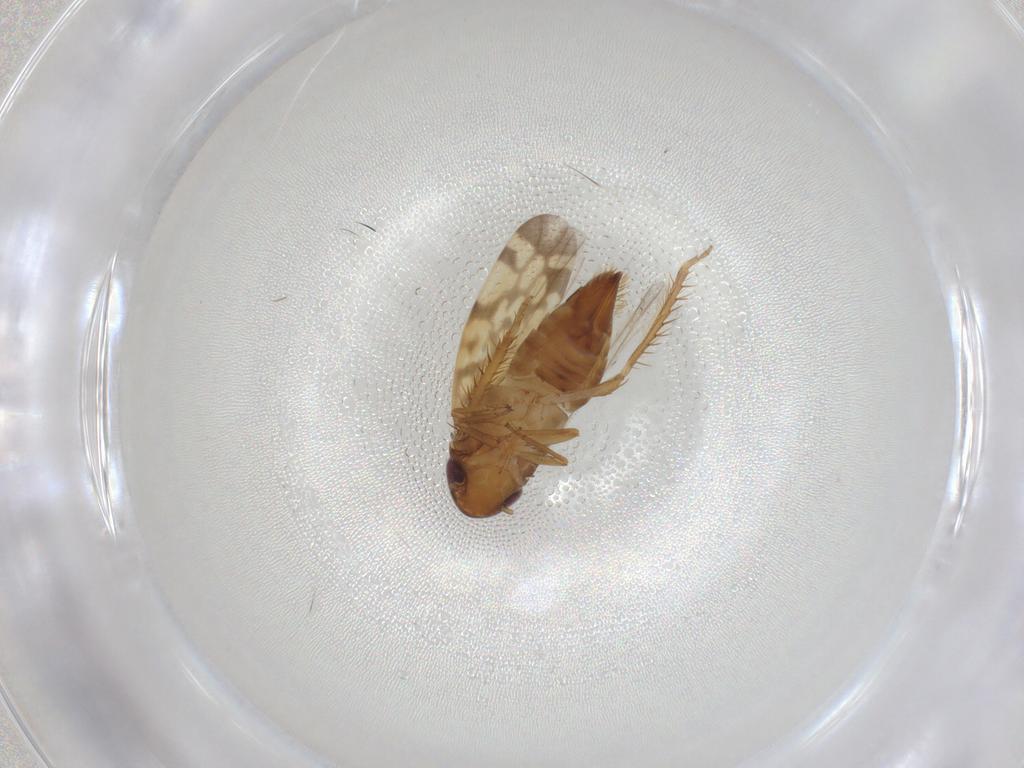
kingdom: Animalia
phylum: Arthropoda
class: Insecta
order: Hemiptera
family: Cicadellidae
